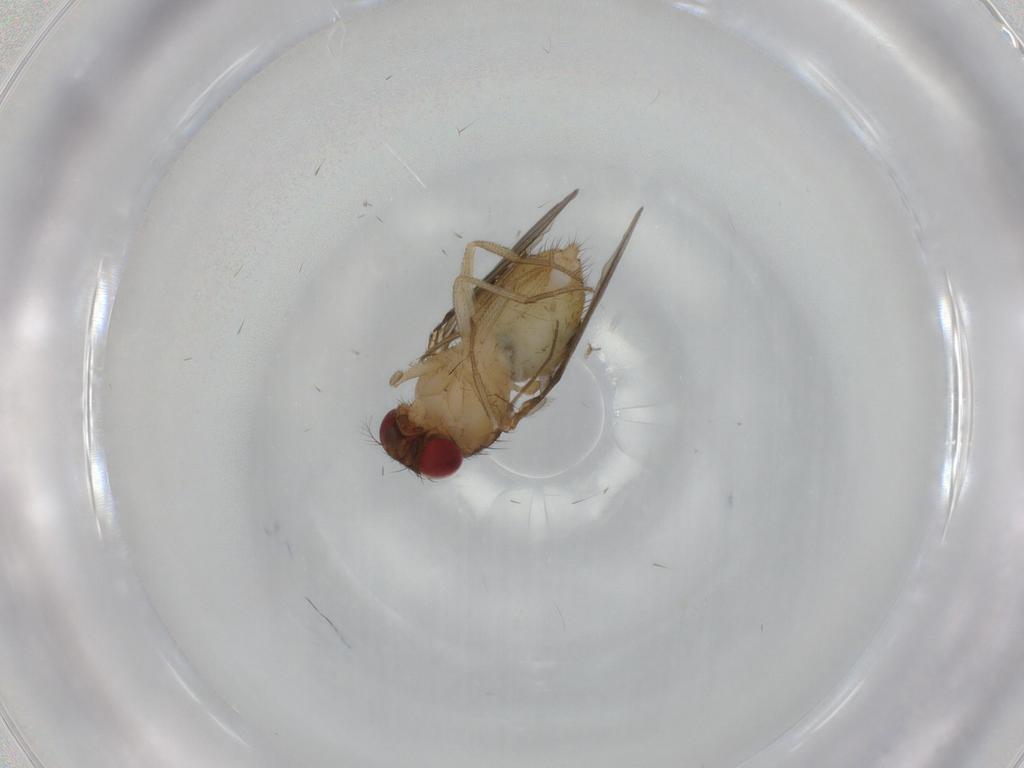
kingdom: Animalia
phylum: Arthropoda
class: Insecta
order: Diptera
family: Drosophilidae
